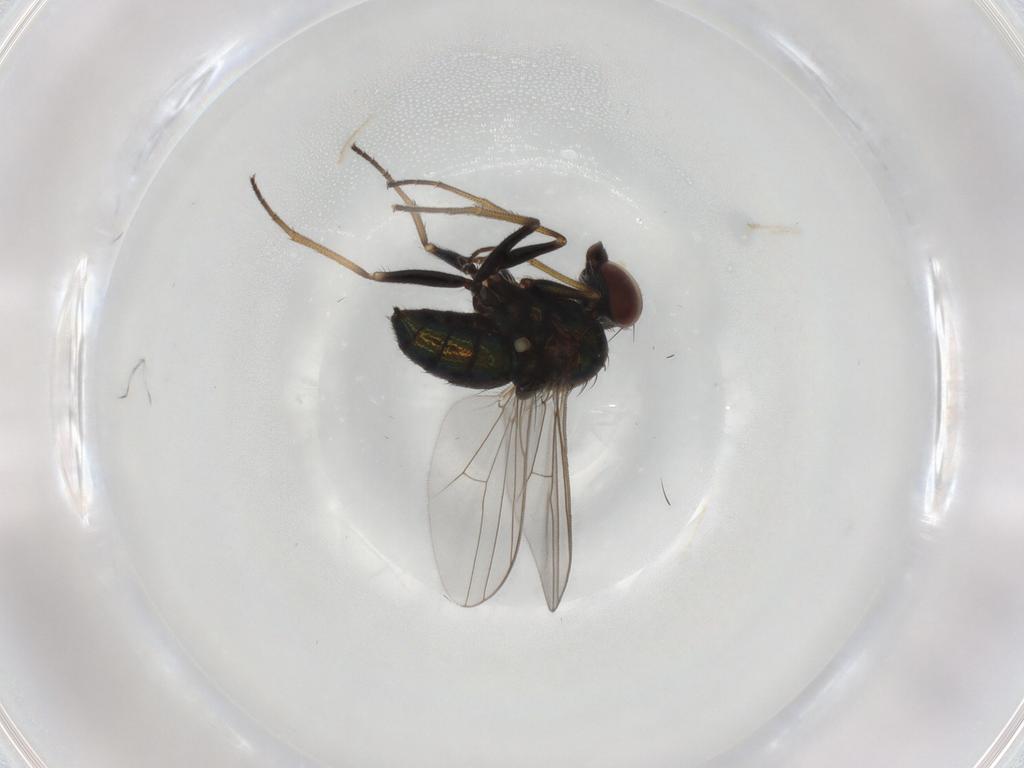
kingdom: Animalia
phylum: Arthropoda
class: Insecta
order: Diptera
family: Dolichopodidae
